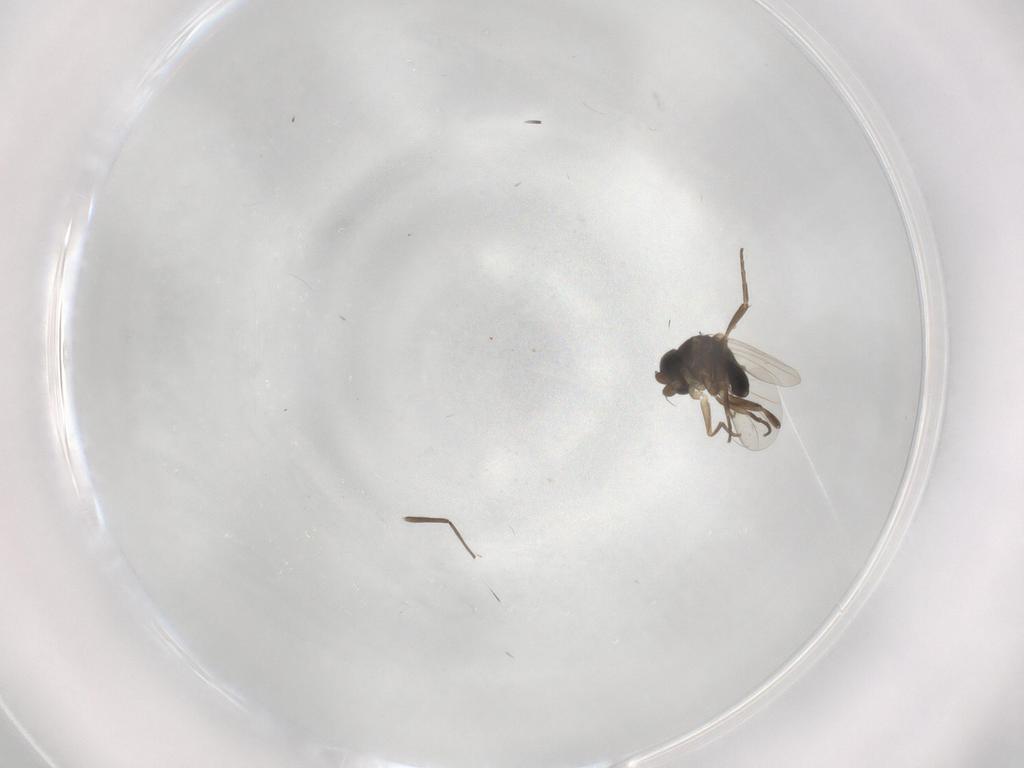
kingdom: Animalia
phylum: Arthropoda
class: Insecta
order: Diptera
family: Phoridae
